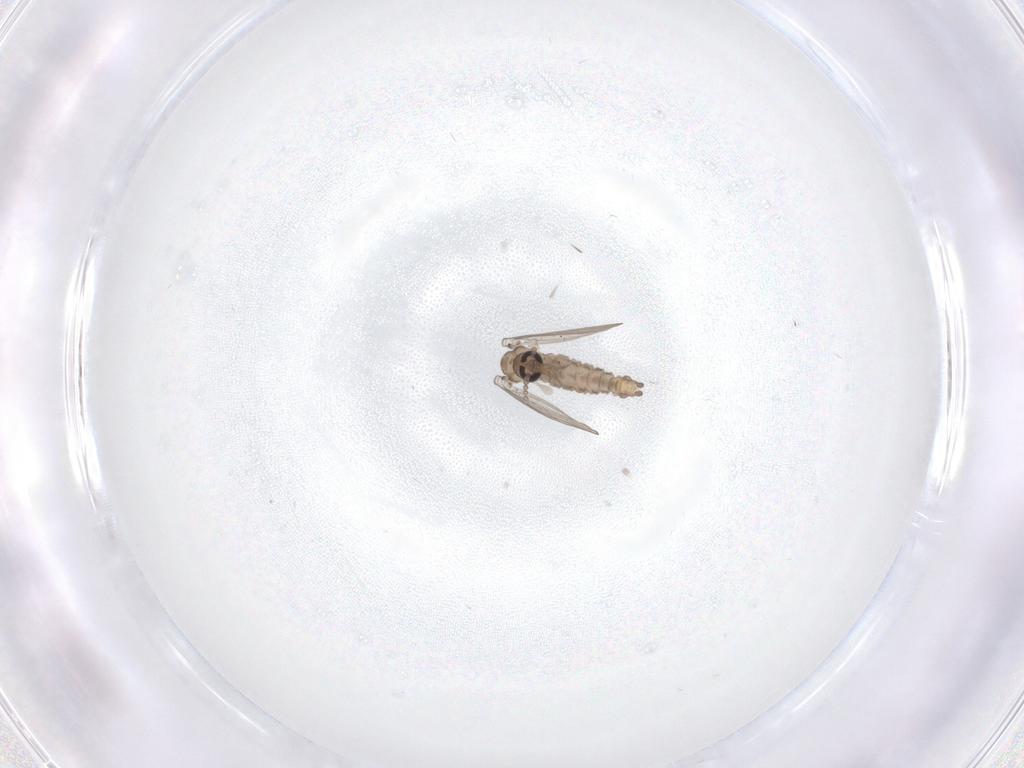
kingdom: Animalia
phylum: Arthropoda
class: Insecta
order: Diptera
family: Psychodidae
